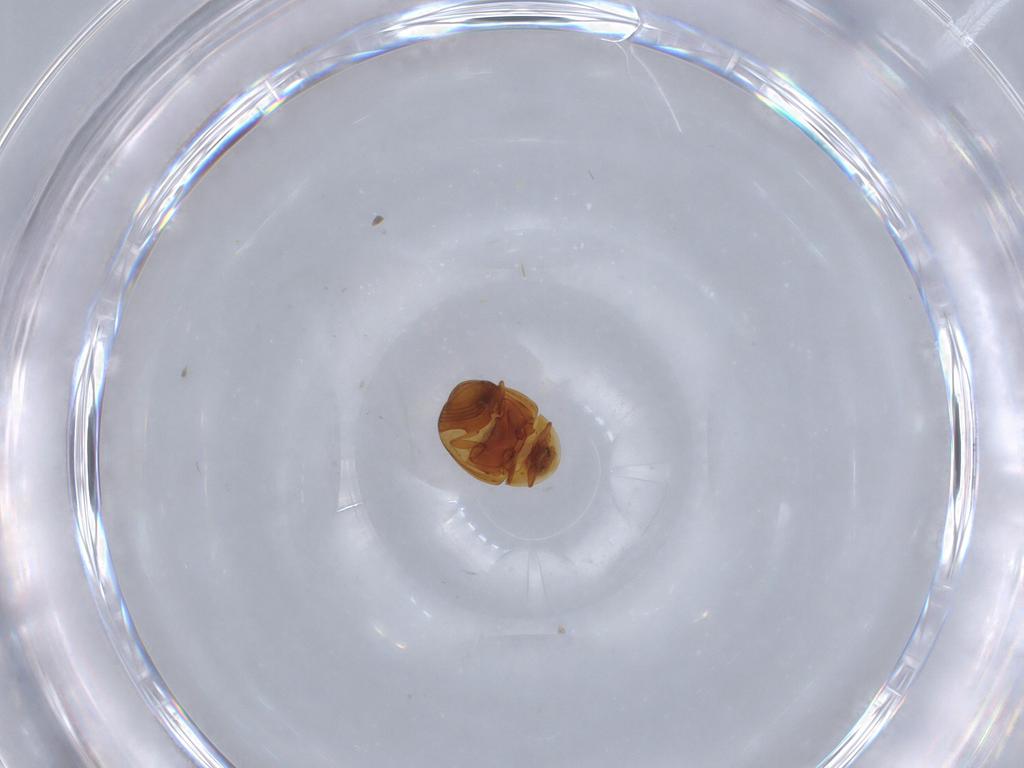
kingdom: Animalia
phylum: Arthropoda
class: Insecta
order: Coleoptera
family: Corylophidae
